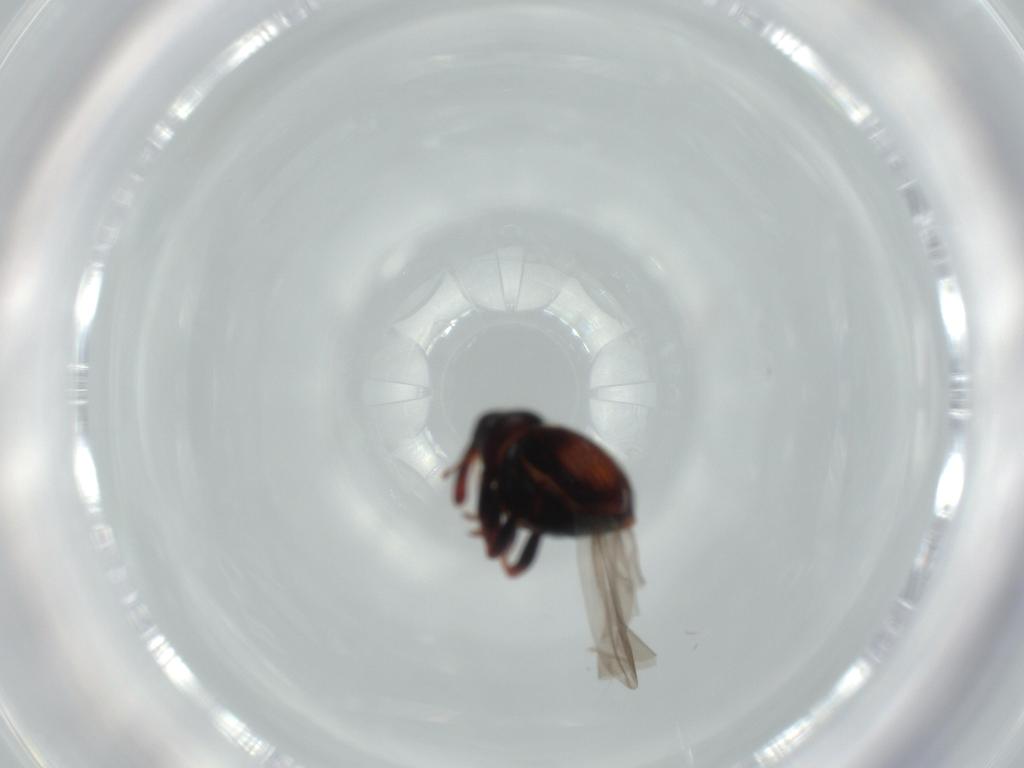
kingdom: Animalia
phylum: Arthropoda
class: Insecta
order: Coleoptera
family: Curculionidae
